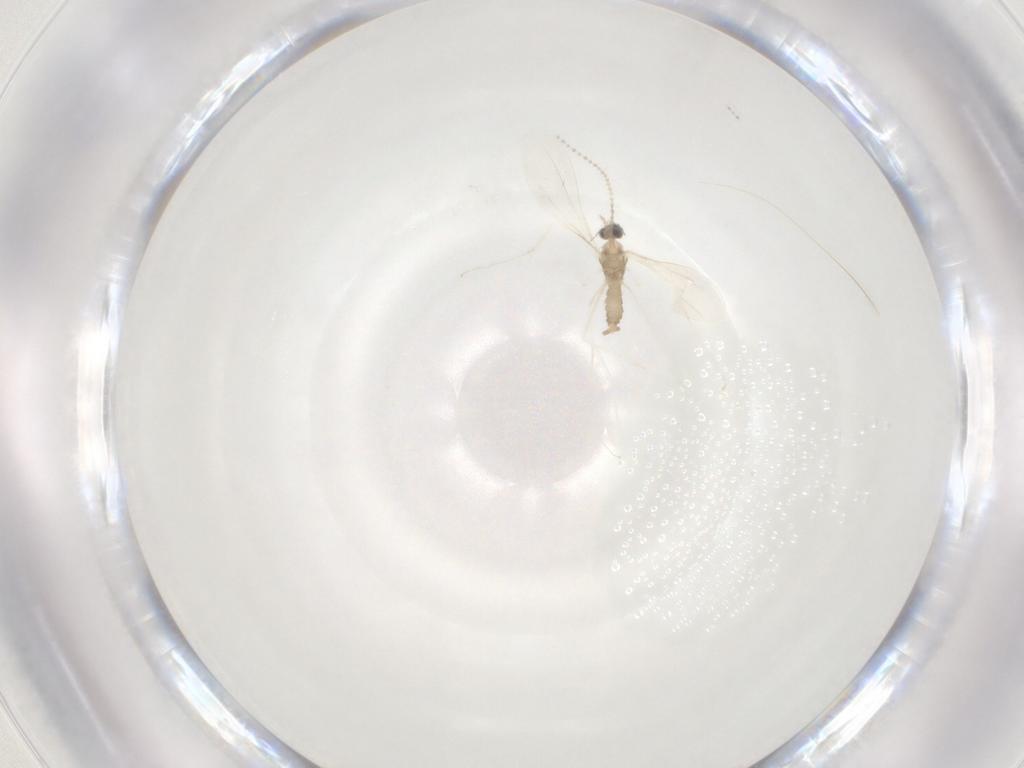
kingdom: Animalia
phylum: Arthropoda
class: Insecta
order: Diptera
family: Cecidomyiidae
